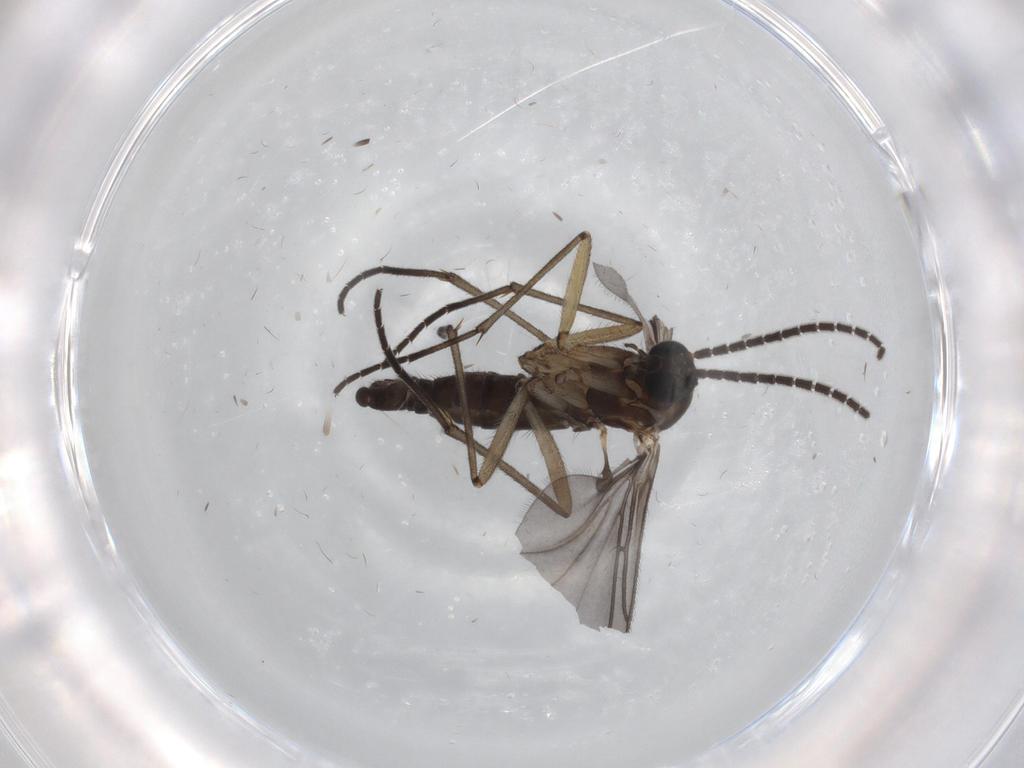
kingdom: Animalia
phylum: Arthropoda
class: Insecta
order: Diptera
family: Sciaridae
